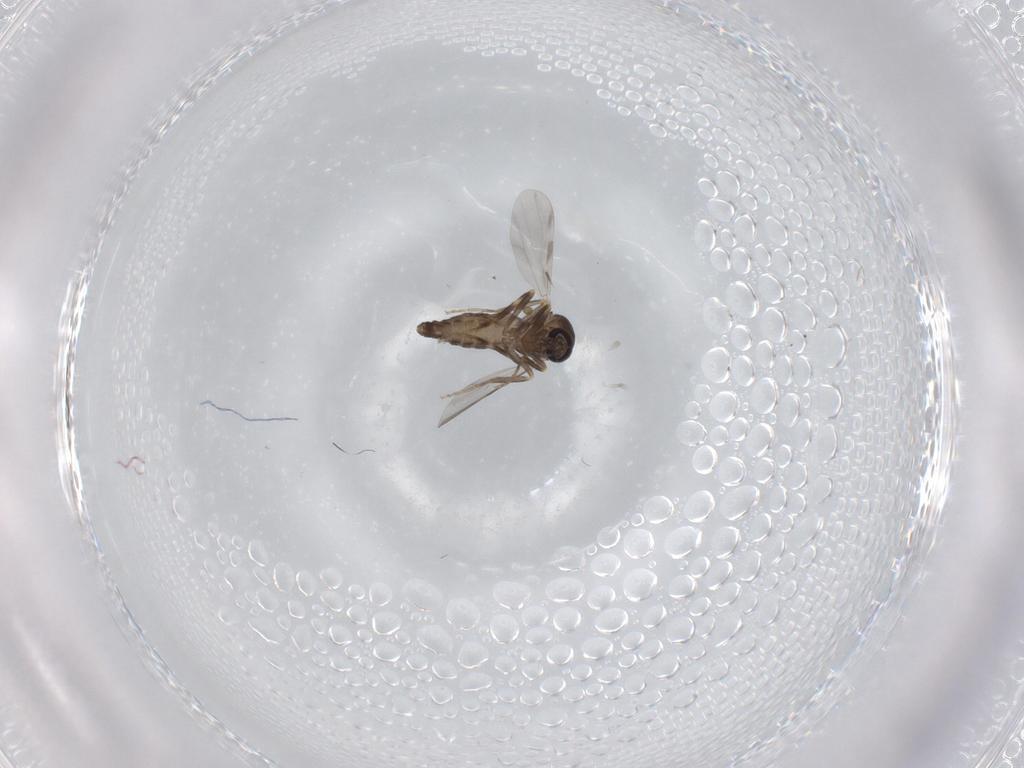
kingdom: Animalia
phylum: Arthropoda
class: Insecta
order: Diptera
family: Ceratopogonidae
